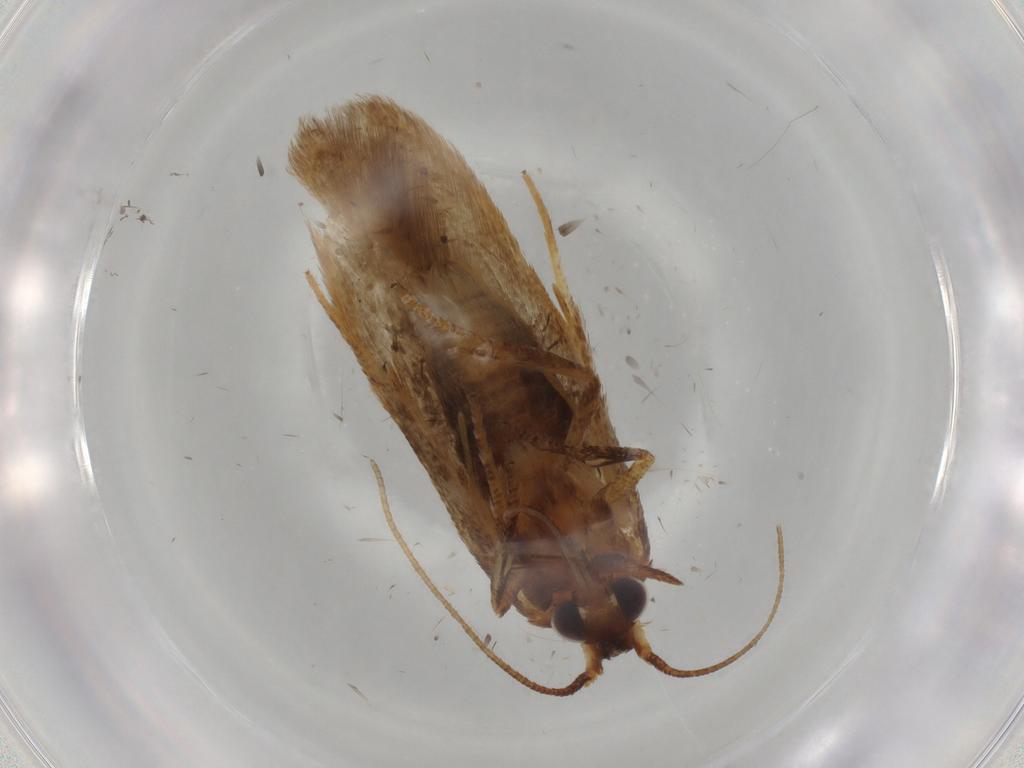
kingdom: Animalia
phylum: Arthropoda
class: Insecta
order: Lepidoptera
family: Blastobasidae
